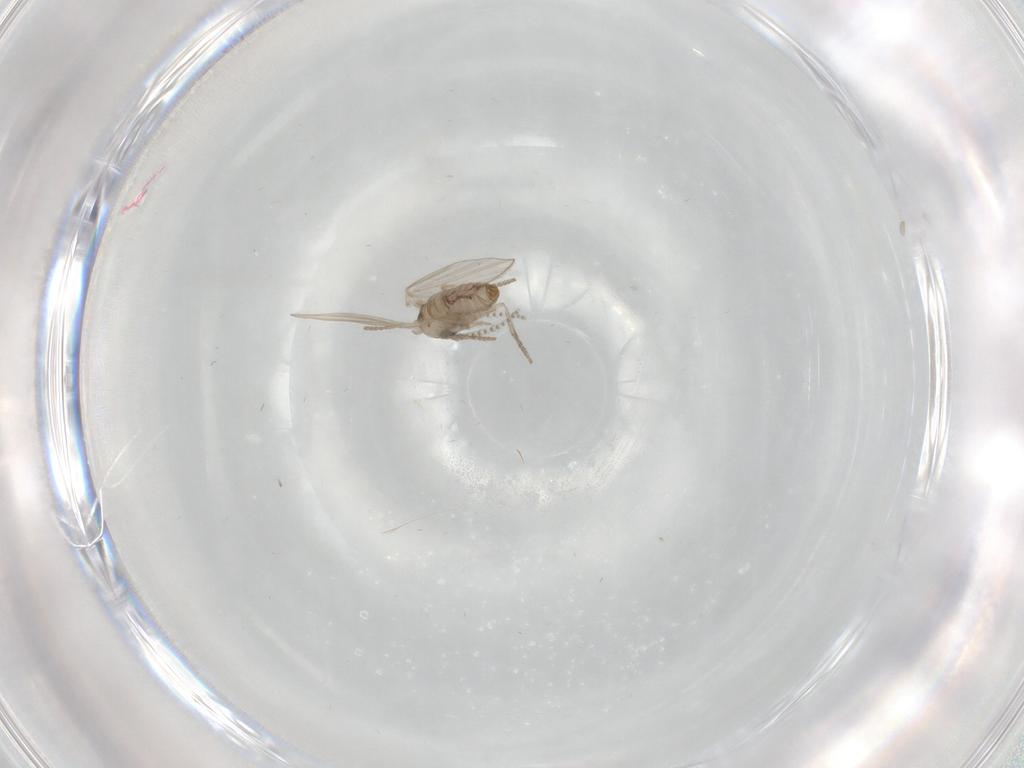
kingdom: Animalia
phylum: Arthropoda
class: Insecta
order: Diptera
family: Psychodidae
